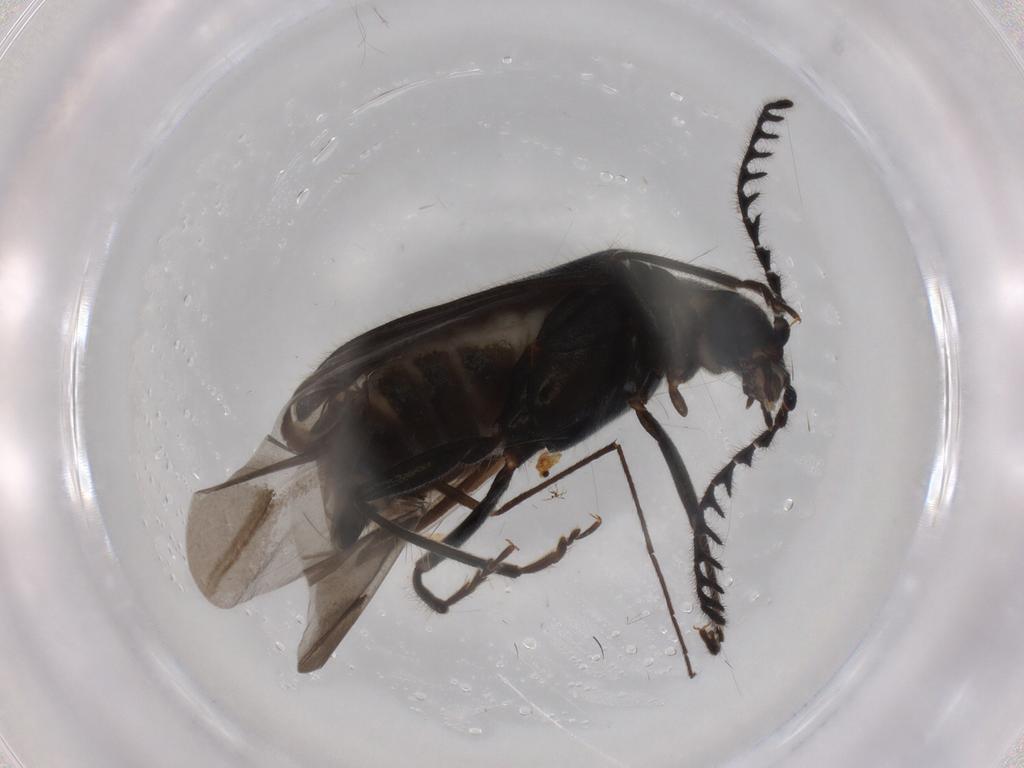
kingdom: Animalia
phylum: Arthropoda
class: Insecta
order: Coleoptera
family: Melyridae
